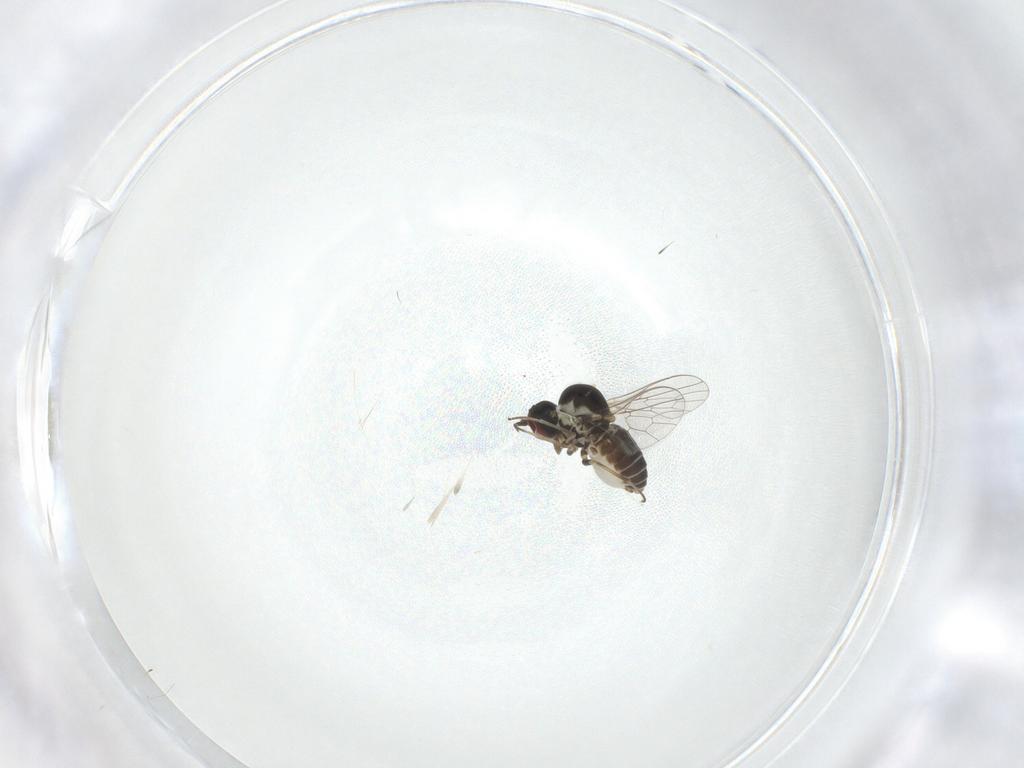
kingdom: Animalia
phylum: Arthropoda
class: Insecta
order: Diptera
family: Mythicomyiidae
